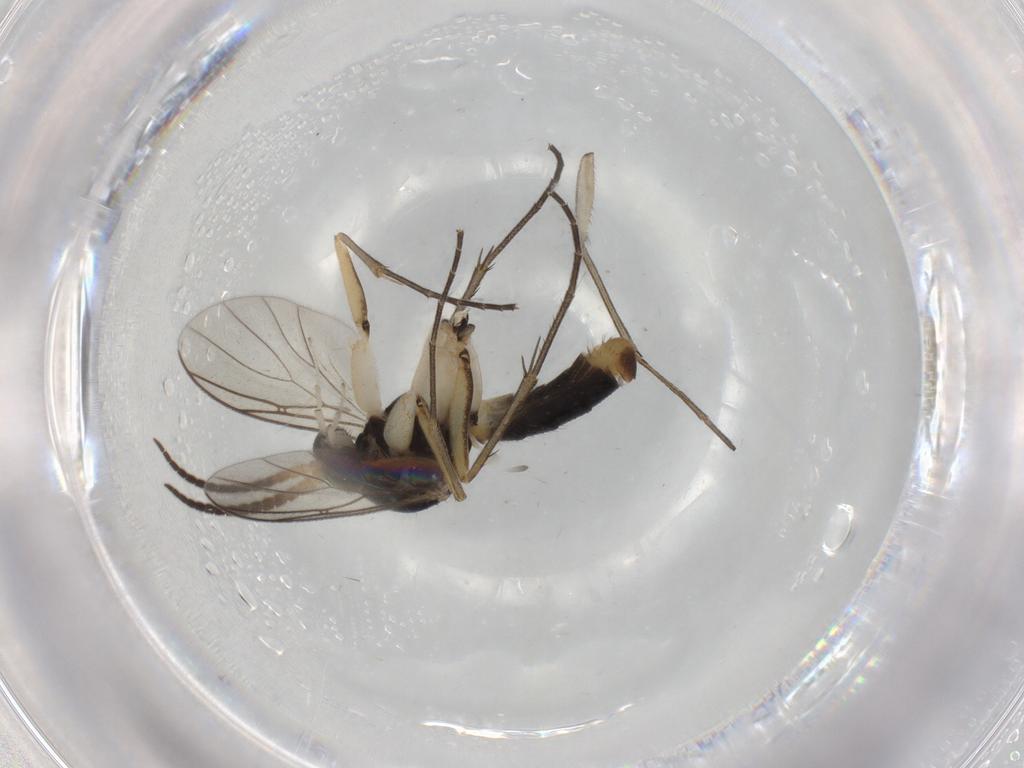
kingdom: Animalia
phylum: Arthropoda
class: Insecta
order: Diptera
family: Phoridae
